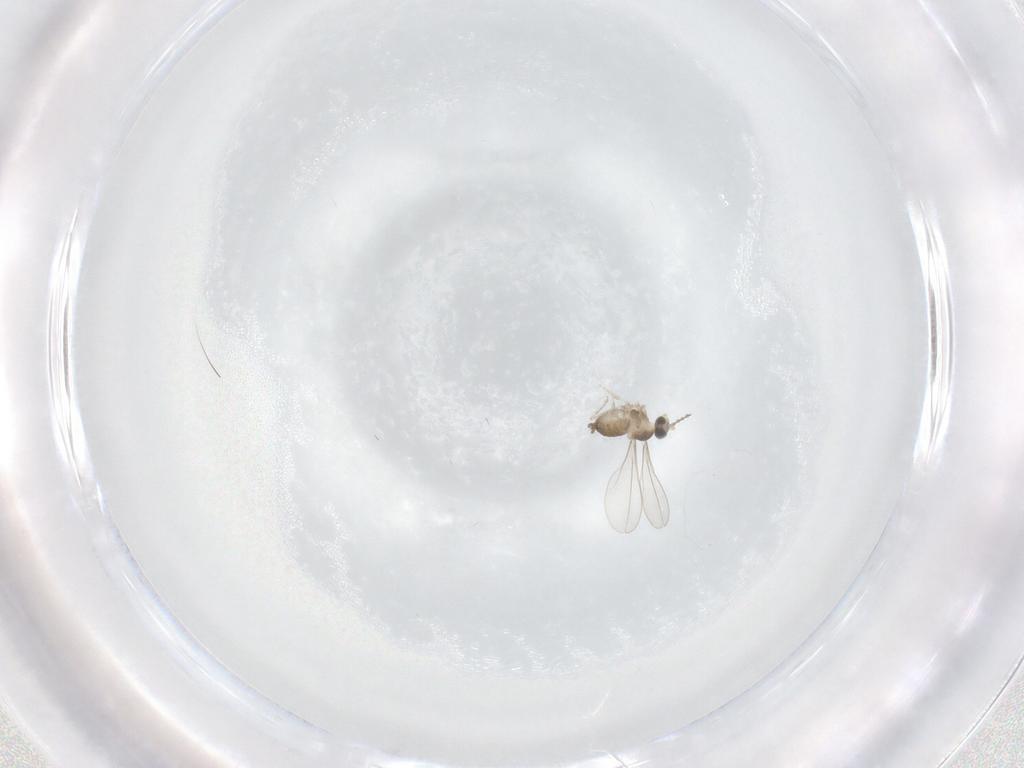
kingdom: Animalia
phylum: Arthropoda
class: Insecta
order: Diptera
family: Cecidomyiidae
